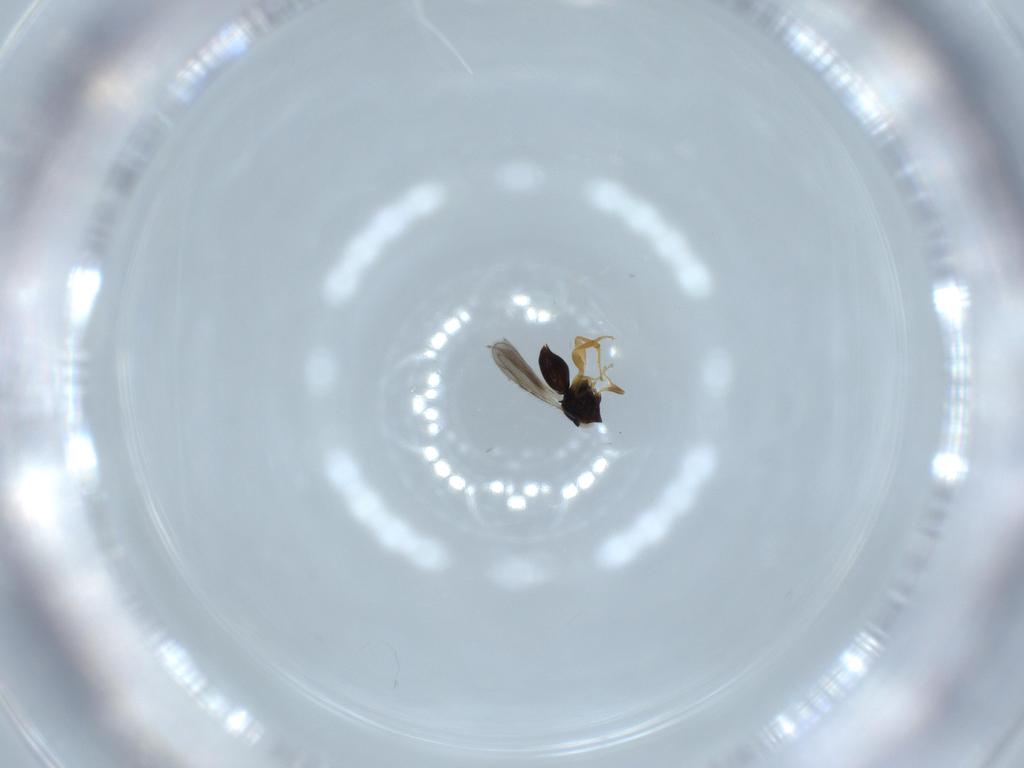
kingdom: Animalia
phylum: Arthropoda
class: Insecta
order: Hymenoptera
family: Ceraphronidae
